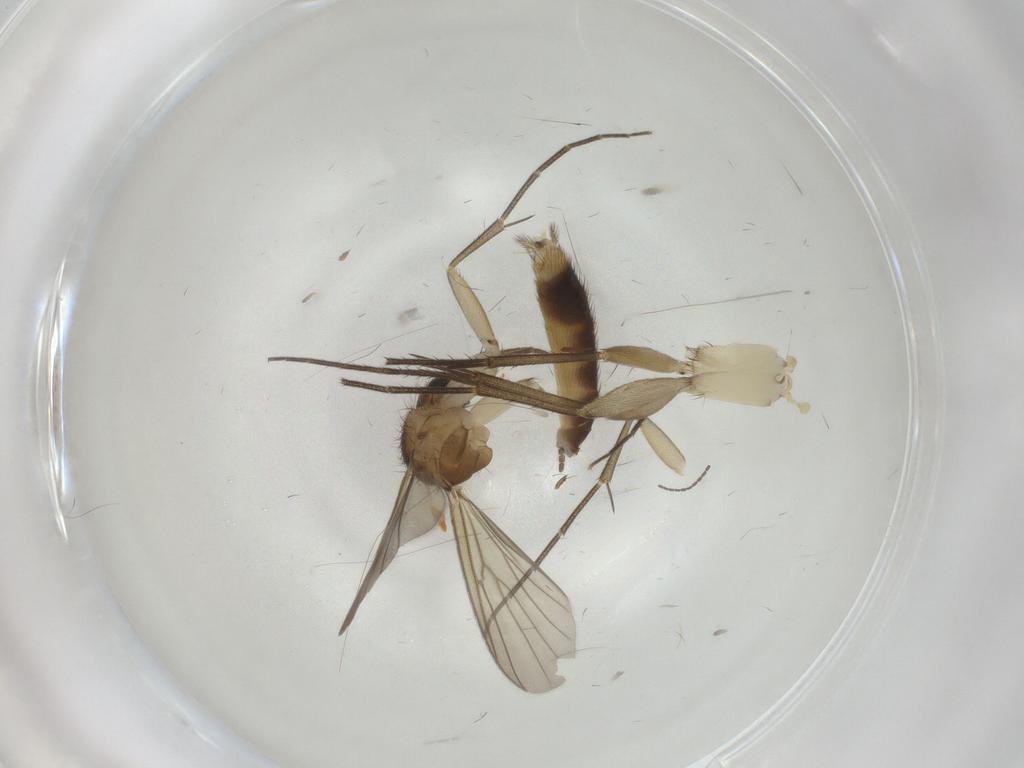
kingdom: Animalia
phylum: Arthropoda
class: Insecta
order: Diptera
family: Mycetophilidae
